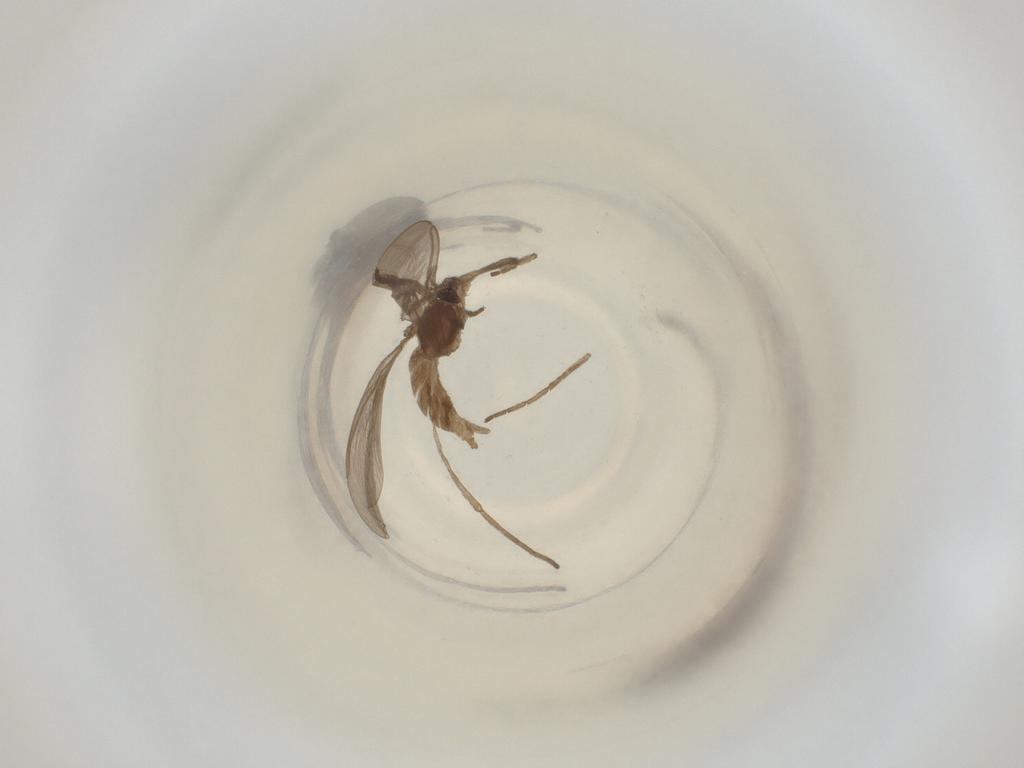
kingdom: Animalia
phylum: Arthropoda
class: Insecta
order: Diptera
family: Cecidomyiidae
